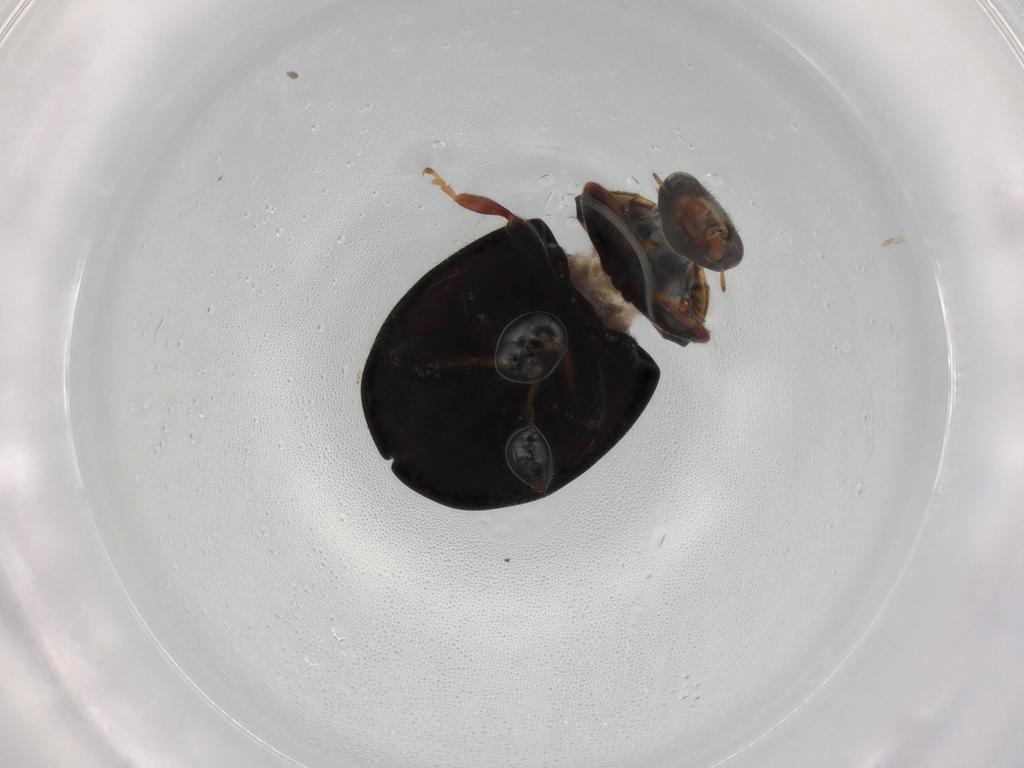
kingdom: Animalia
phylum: Arthropoda
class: Insecta
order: Coleoptera
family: Coccinellidae
